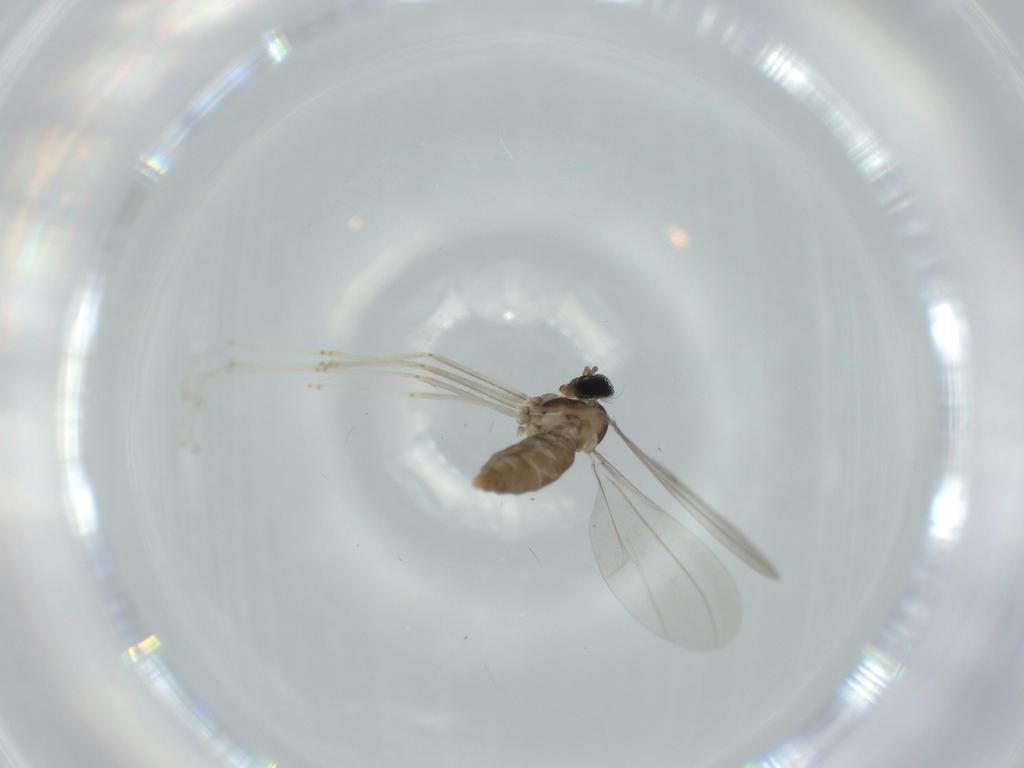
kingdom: Animalia
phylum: Arthropoda
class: Insecta
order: Diptera
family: Cecidomyiidae
